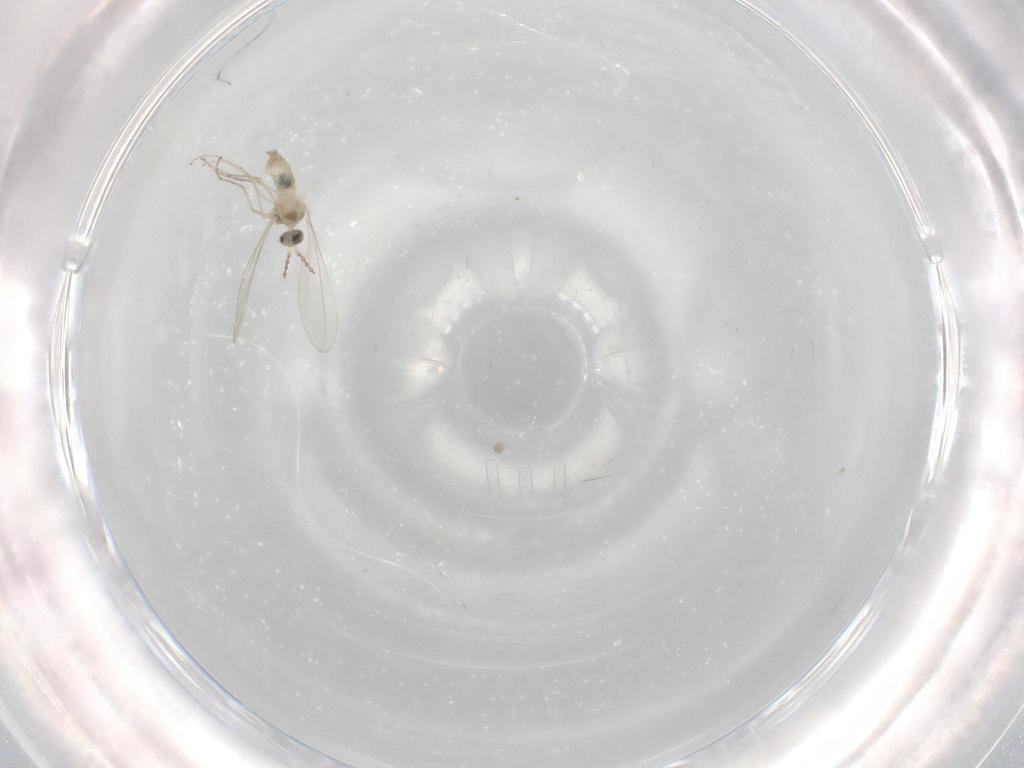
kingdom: Animalia
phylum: Arthropoda
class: Insecta
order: Diptera
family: Cecidomyiidae
